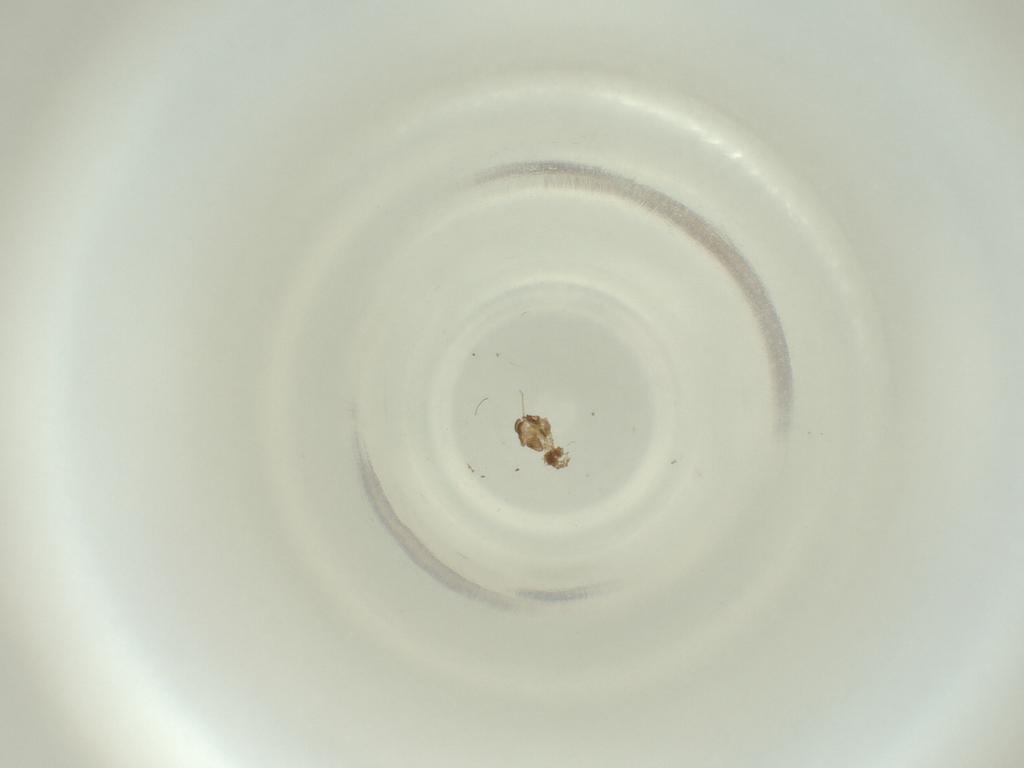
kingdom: Animalia
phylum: Arthropoda
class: Insecta
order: Diptera
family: Cecidomyiidae
